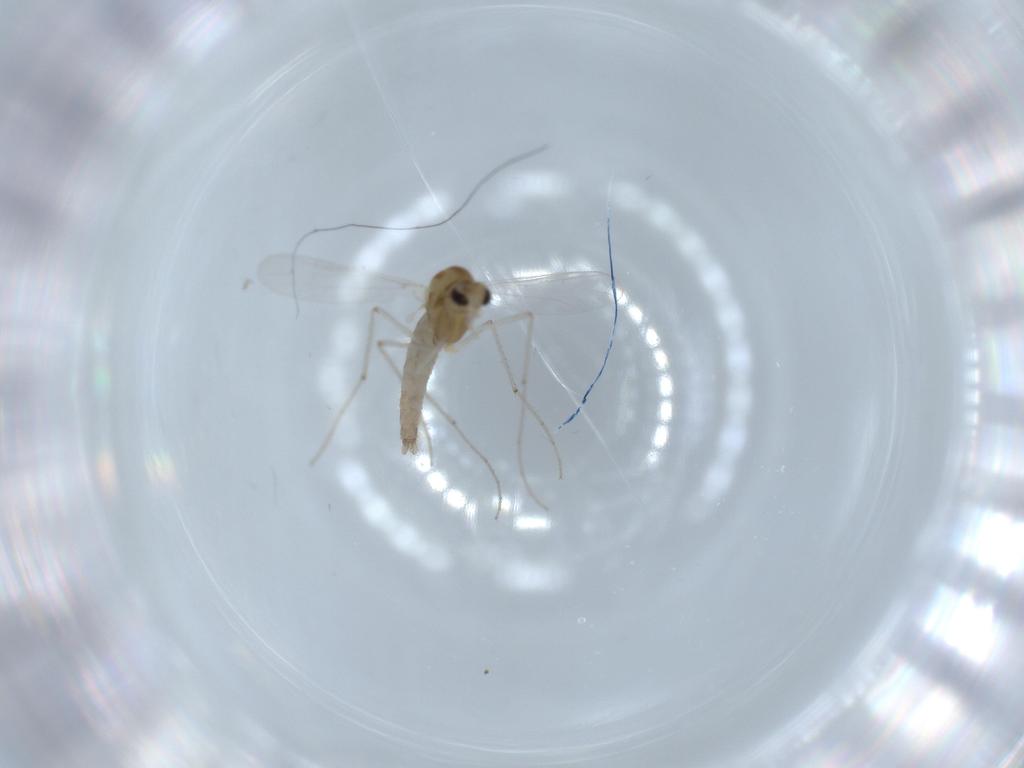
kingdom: Animalia
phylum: Arthropoda
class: Insecta
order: Diptera
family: Chironomidae
